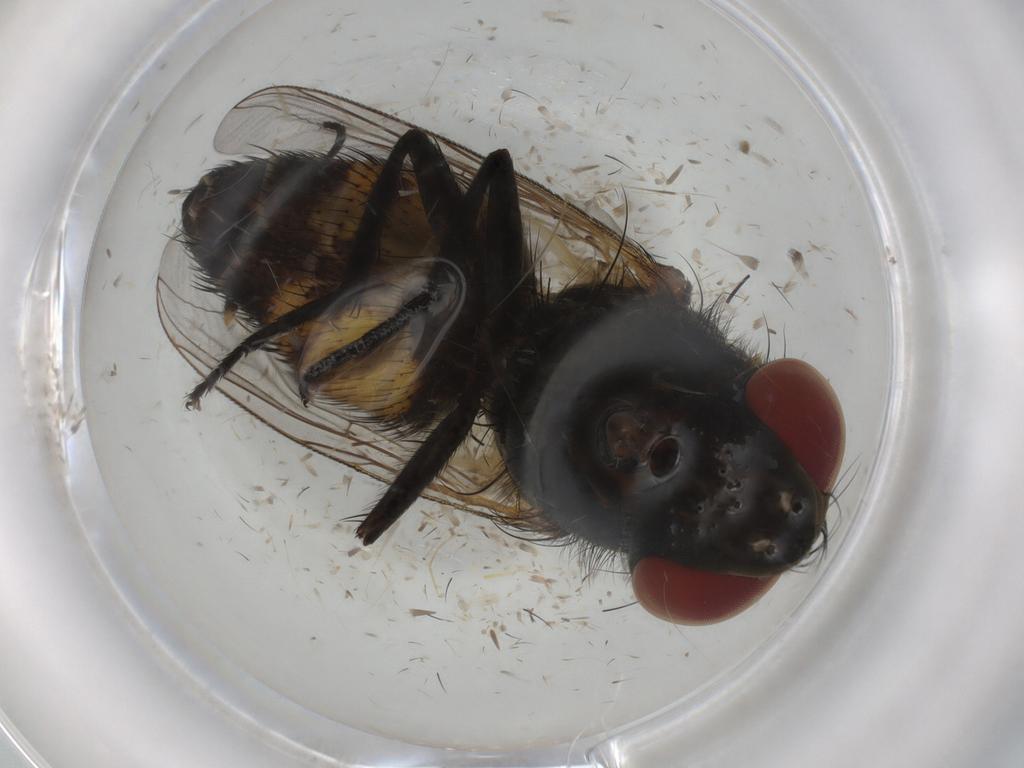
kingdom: Animalia
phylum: Arthropoda
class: Insecta
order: Diptera
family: Sarcophagidae
